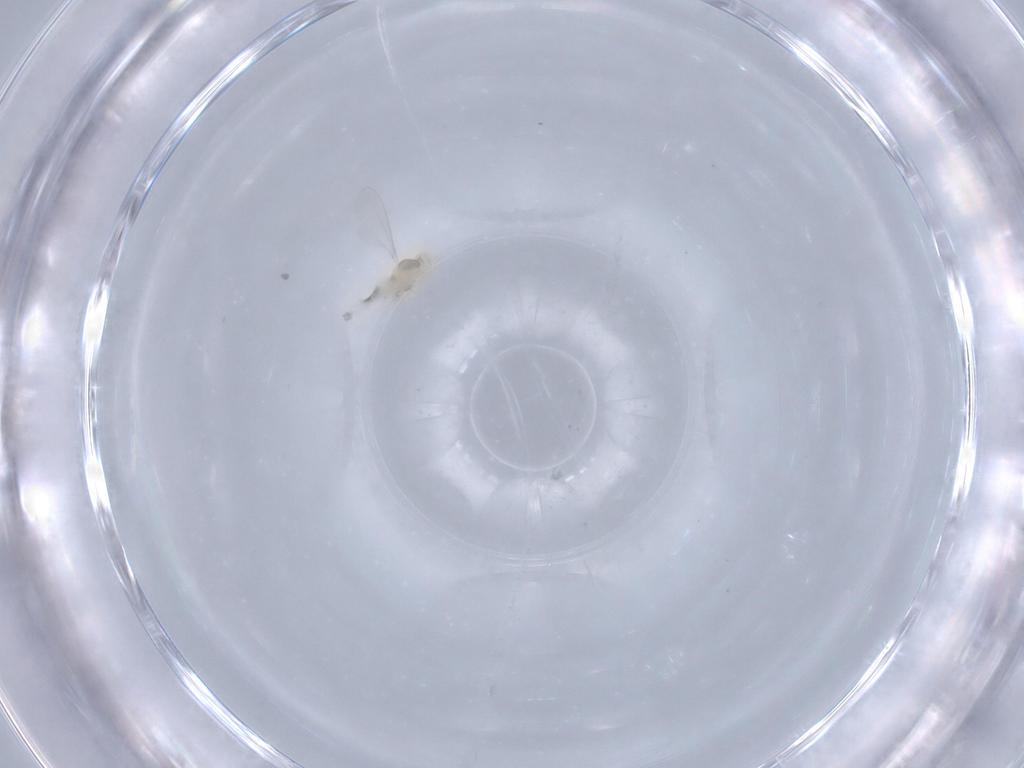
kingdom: Animalia
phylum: Arthropoda
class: Insecta
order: Diptera
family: Cecidomyiidae
